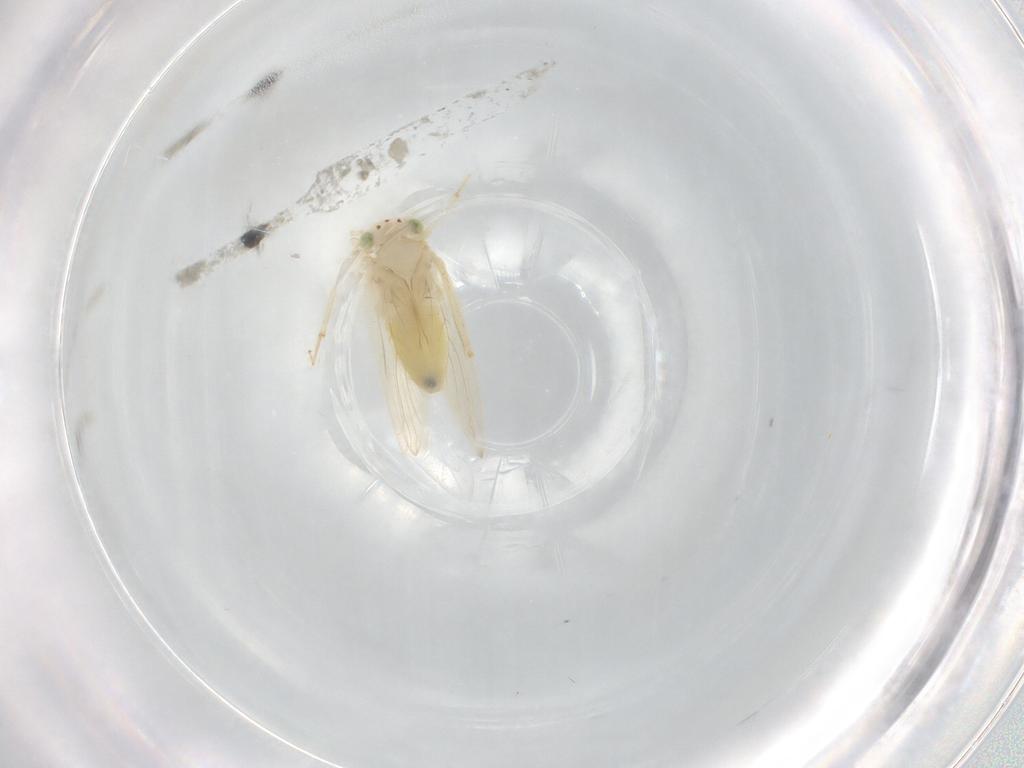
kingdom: Animalia
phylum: Arthropoda
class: Insecta
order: Psocodea
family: Lepidopsocidae
